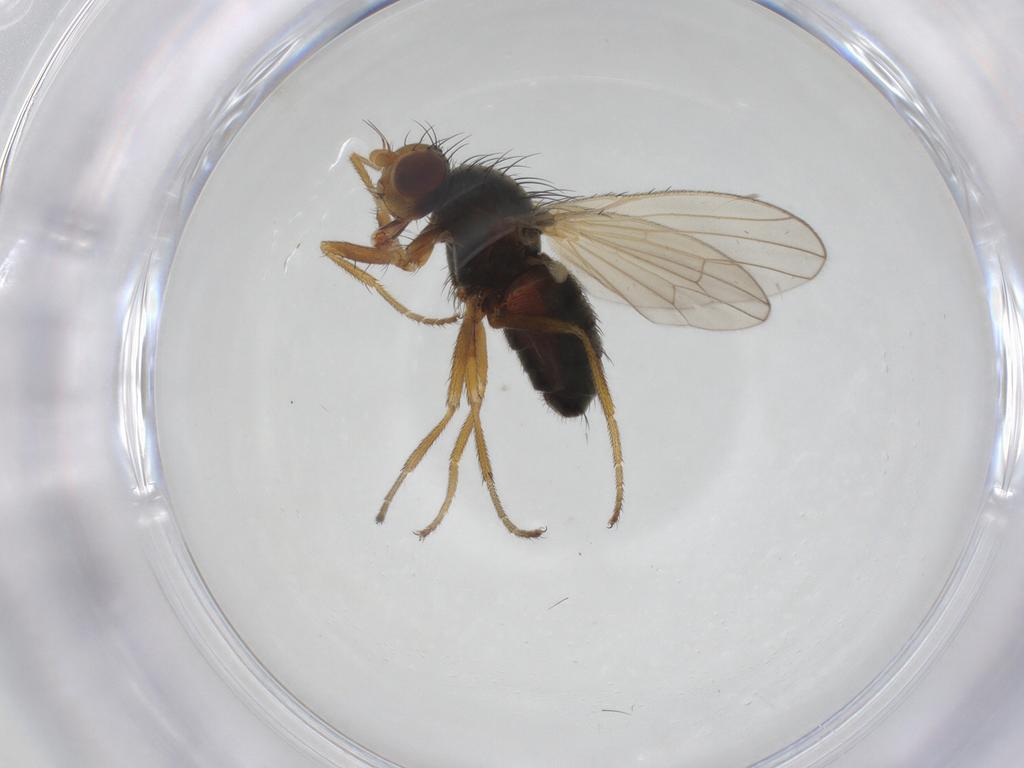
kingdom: Animalia
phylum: Arthropoda
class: Insecta
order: Diptera
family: Heleomyzidae
